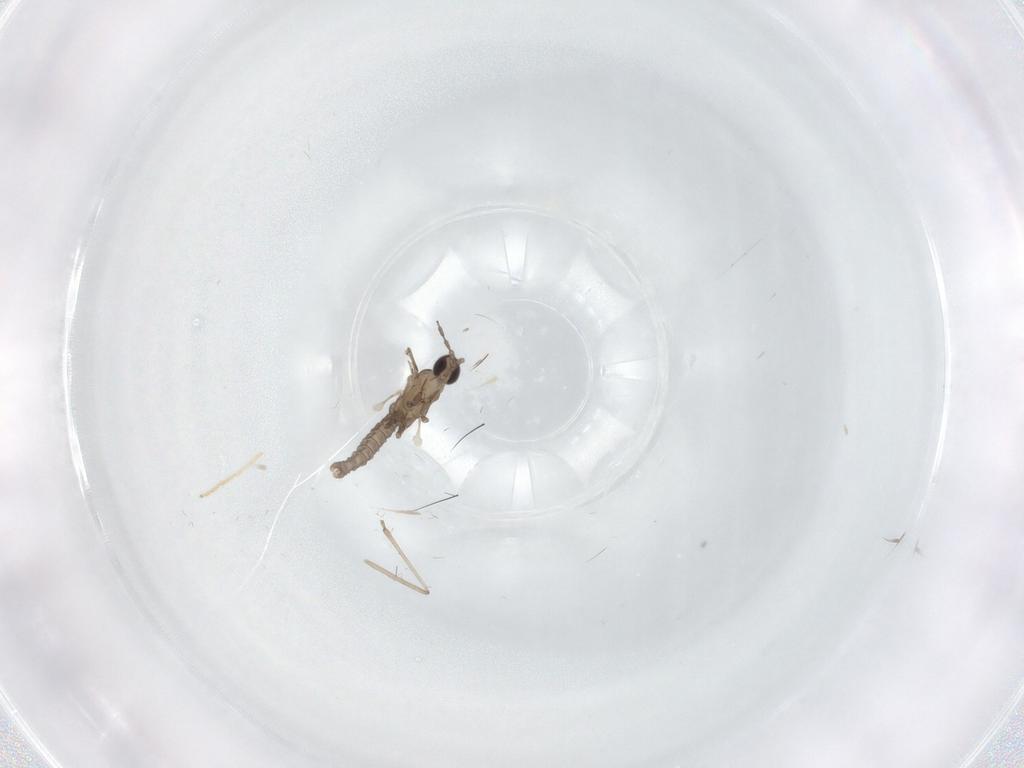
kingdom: Animalia
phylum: Arthropoda
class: Insecta
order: Diptera
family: Cecidomyiidae
